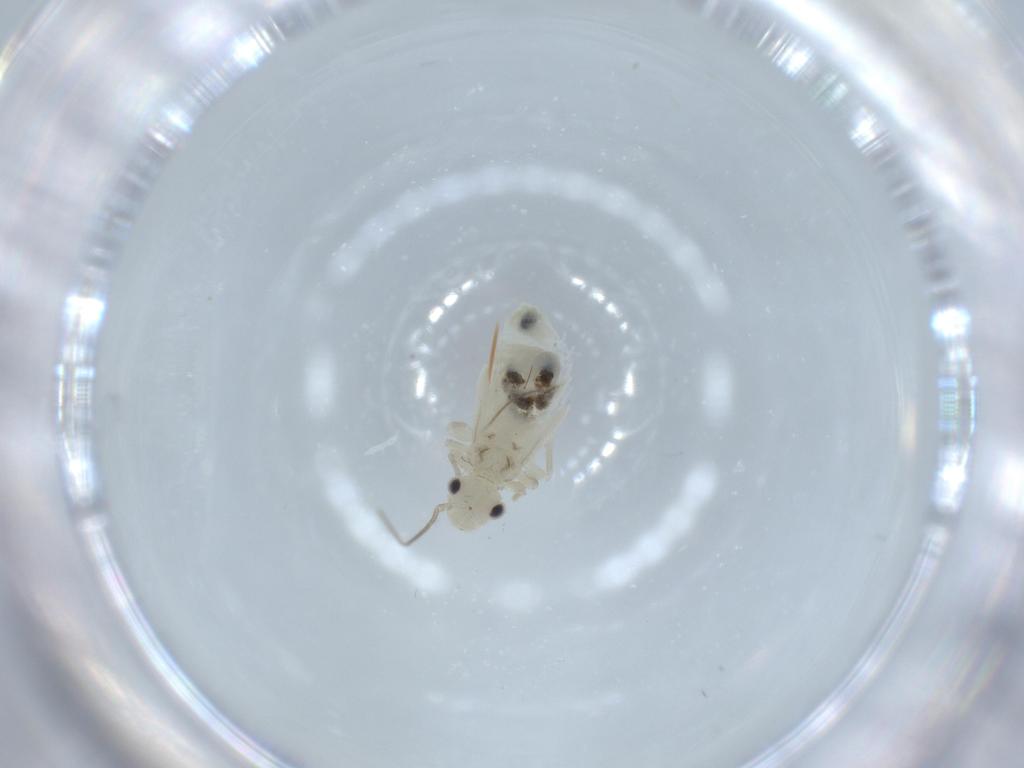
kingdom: Animalia
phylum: Arthropoda
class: Insecta
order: Psocodea
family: Caeciliusidae
